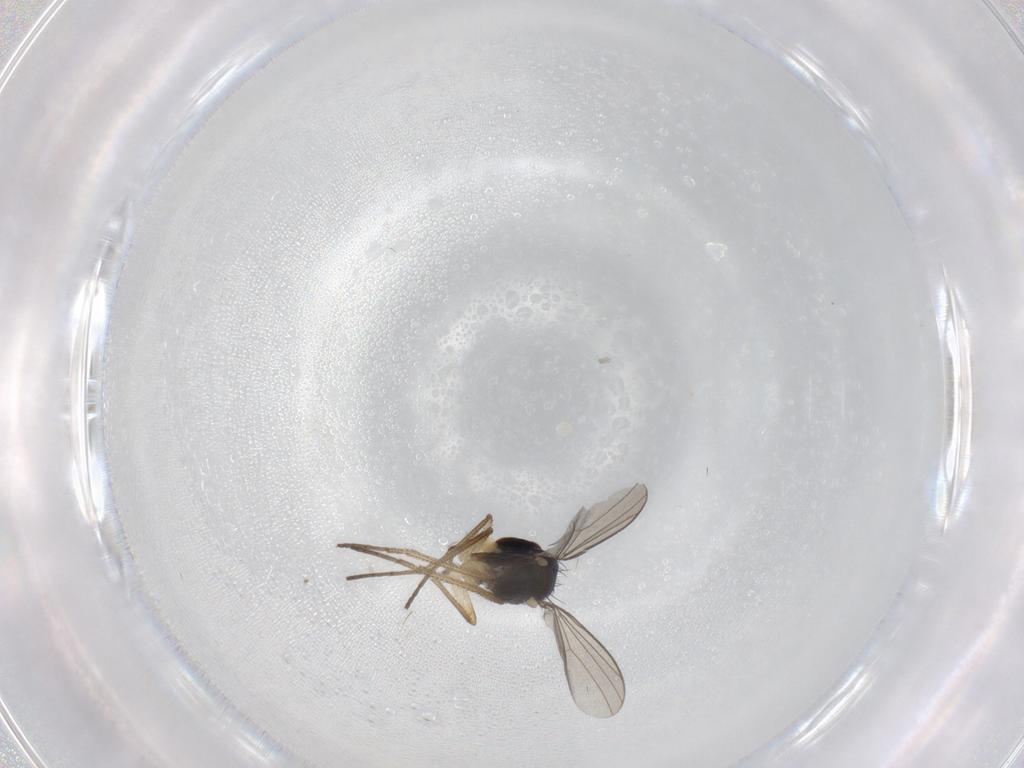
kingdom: Animalia
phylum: Arthropoda
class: Insecta
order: Diptera
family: Dolichopodidae
